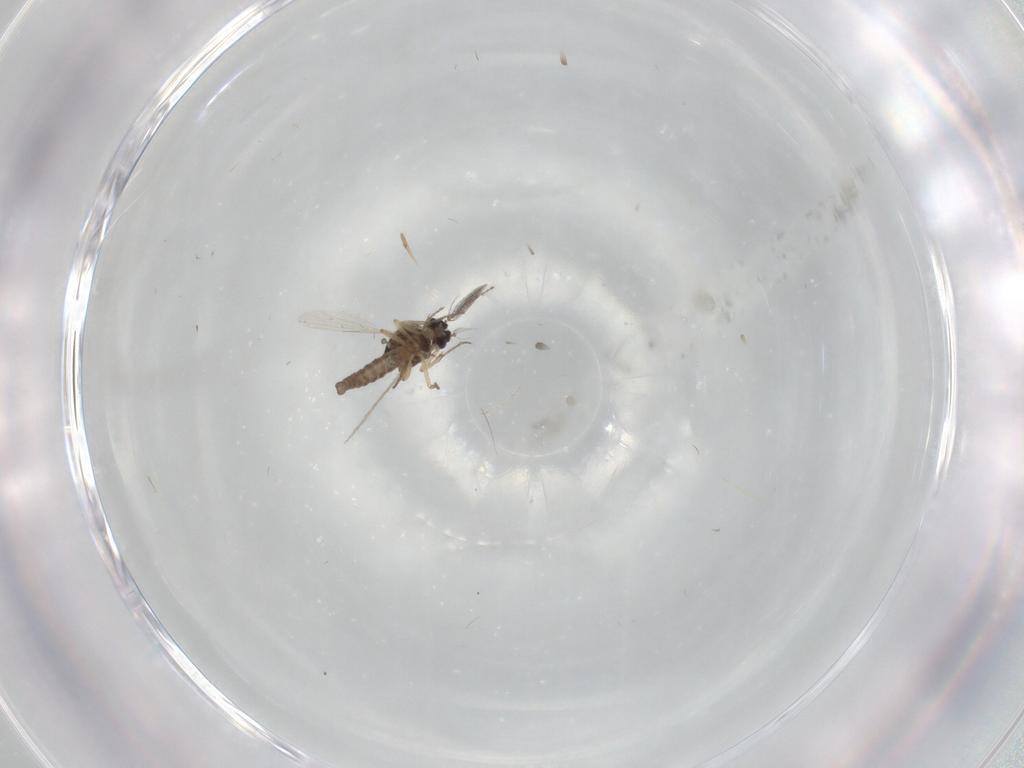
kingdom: Animalia
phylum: Arthropoda
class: Insecta
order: Diptera
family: Ceratopogonidae
